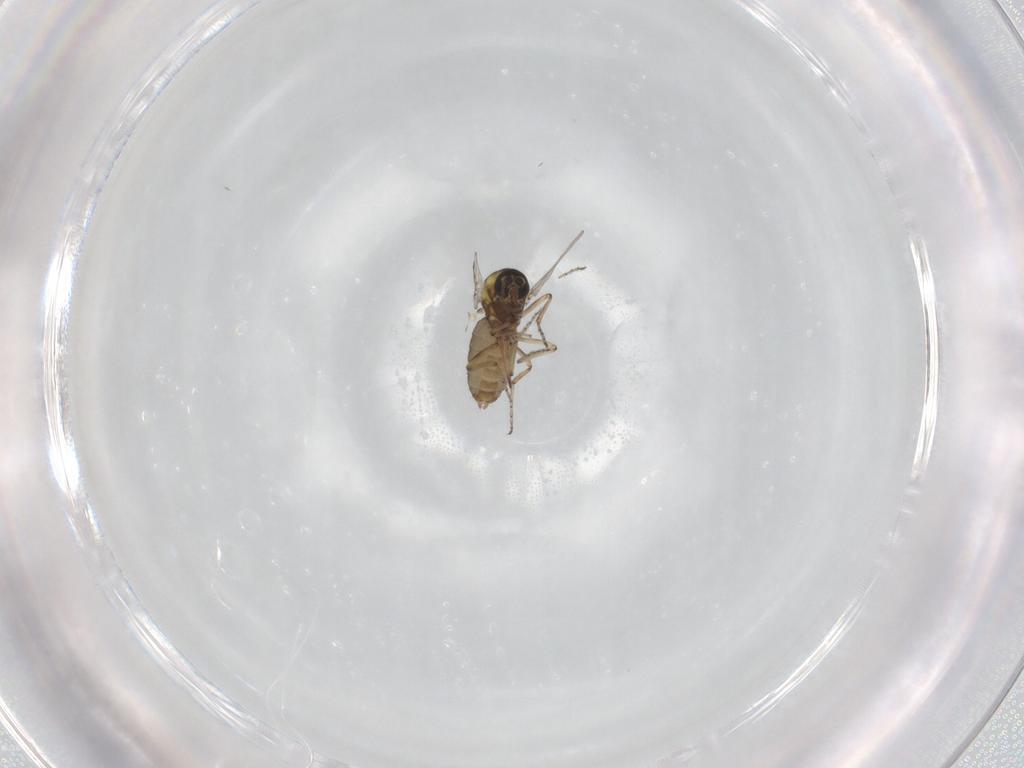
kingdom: Animalia
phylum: Arthropoda
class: Insecta
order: Diptera
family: Ceratopogonidae
